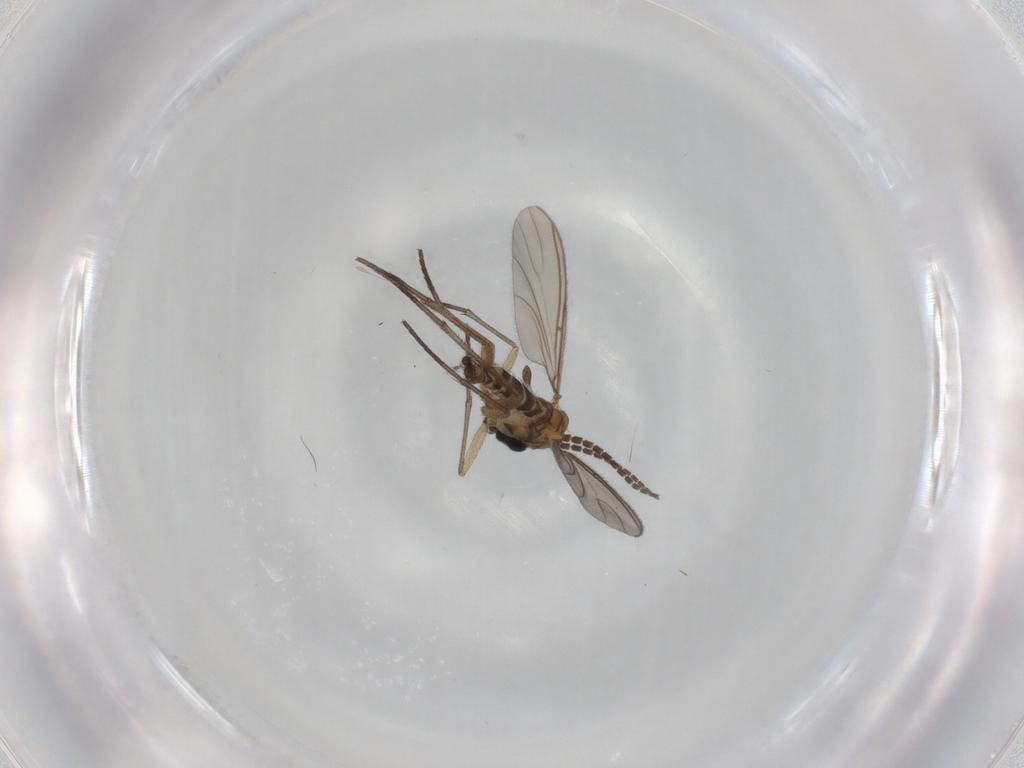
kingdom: Animalia
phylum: Arthropoda
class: Insecta
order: Diptera
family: Sciaridae
